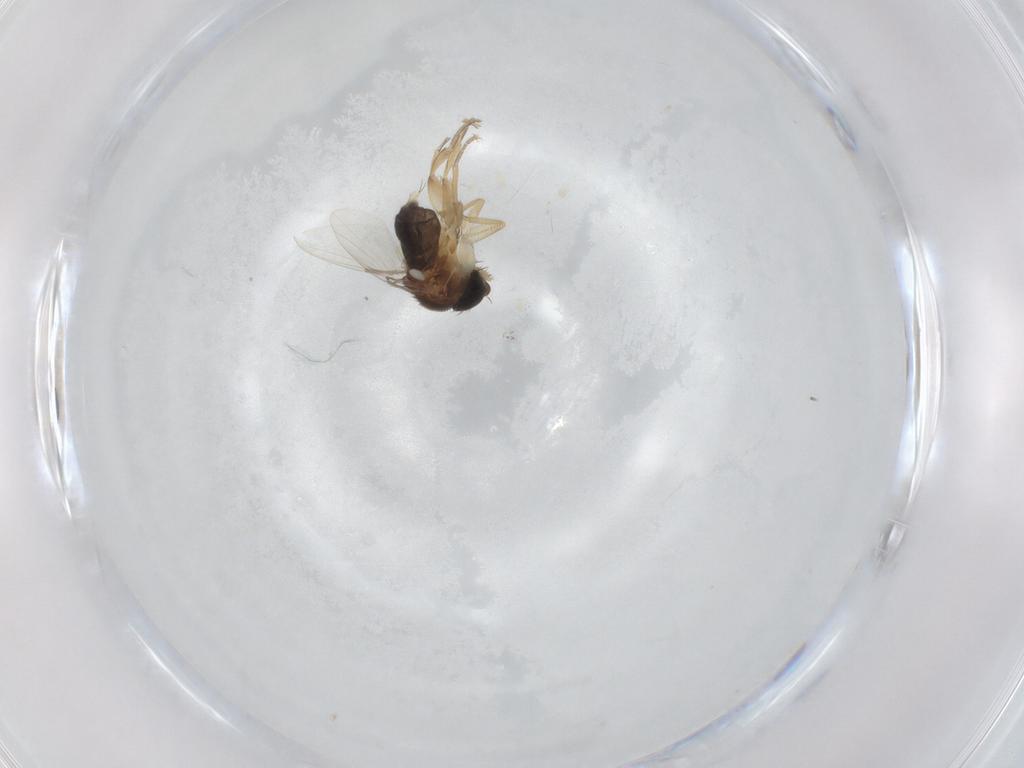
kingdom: Animalia
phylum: Arthropoda
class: Insecta
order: Diptera
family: Phoridae
